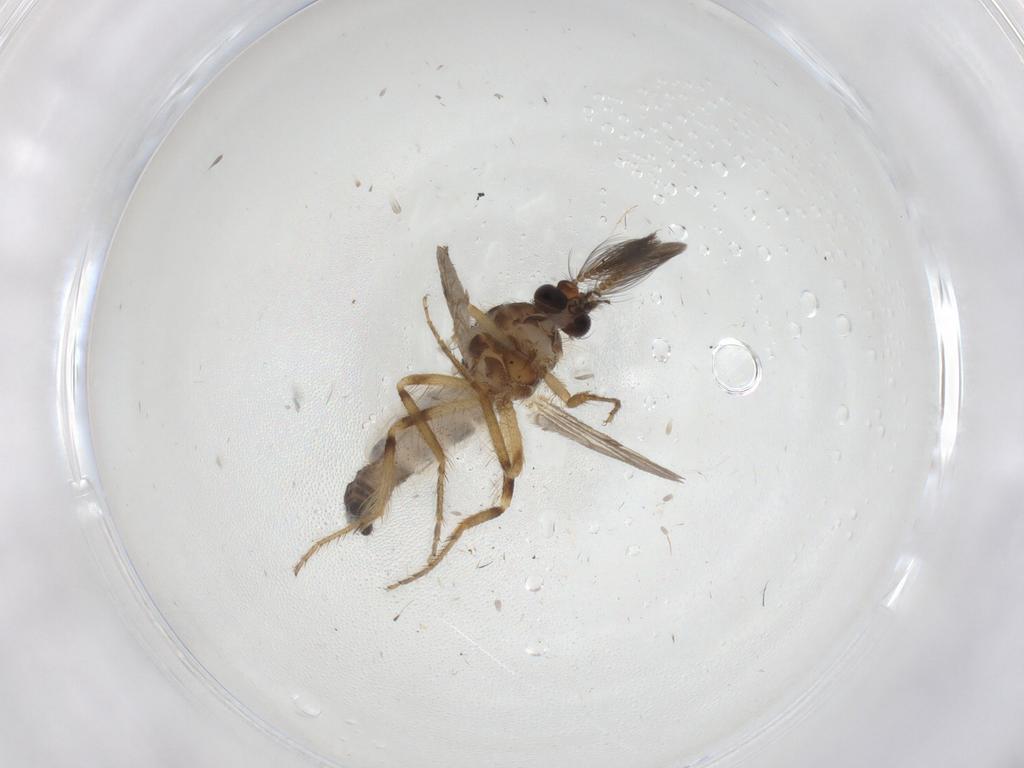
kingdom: Animalia
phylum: Arthropoda
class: Insecta
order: Diptera
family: Ceratopogonidae
